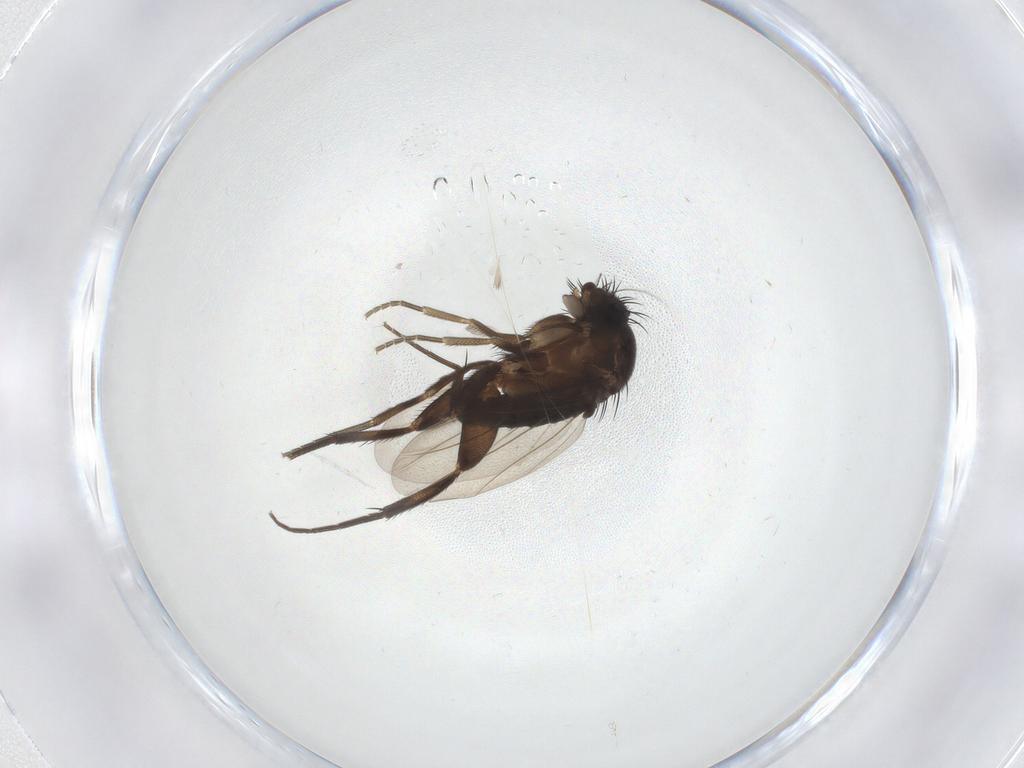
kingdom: Animalia
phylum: Arthropoda
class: Insecta
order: Diptera
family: Phoridae
